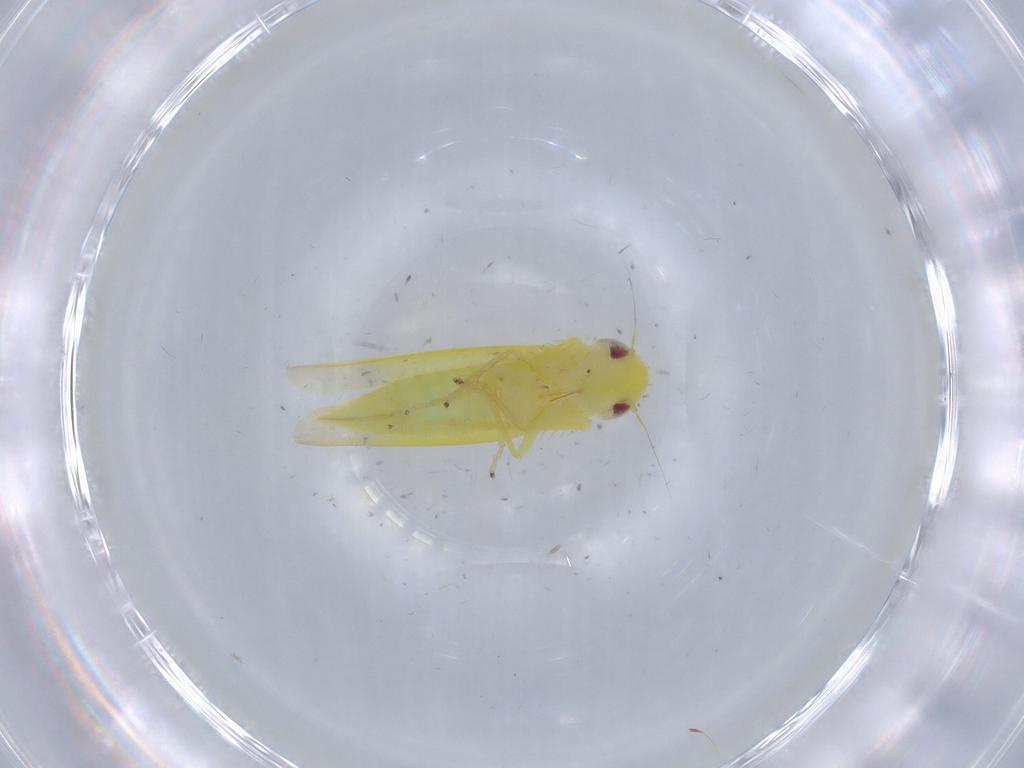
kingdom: Animalia
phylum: Arthropoda
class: Insecta
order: Hemiptera
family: Cicadellidae
